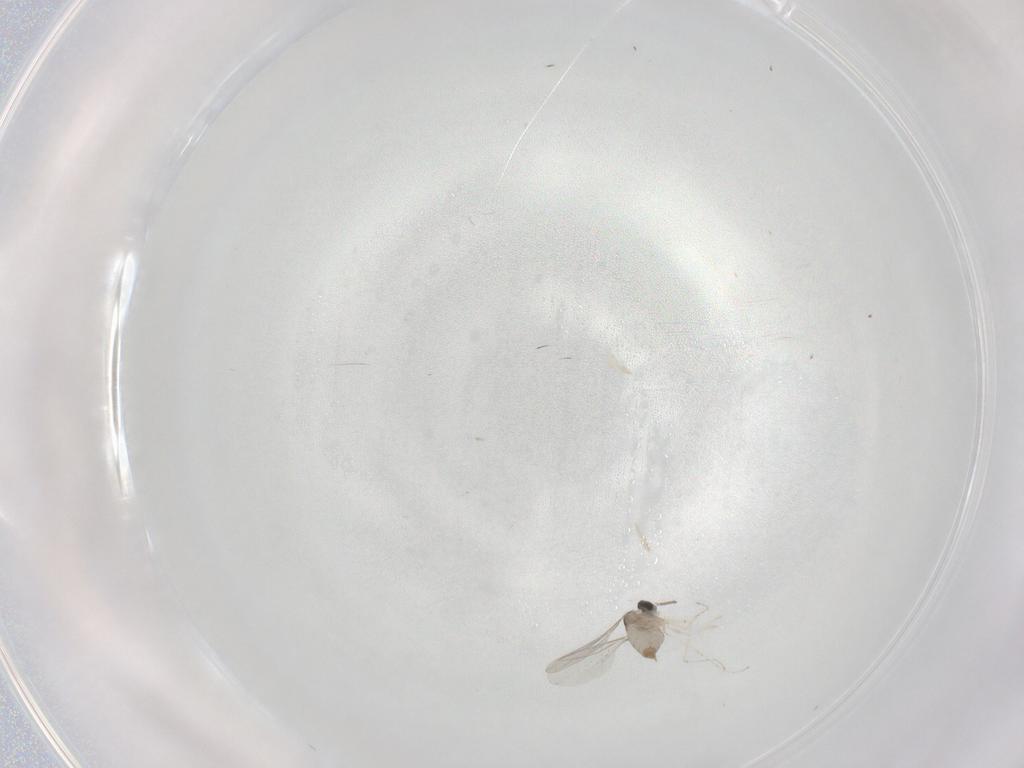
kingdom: Animalia
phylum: Arthropoda
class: Insecta
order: Diptera
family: Cecidomyiidae
